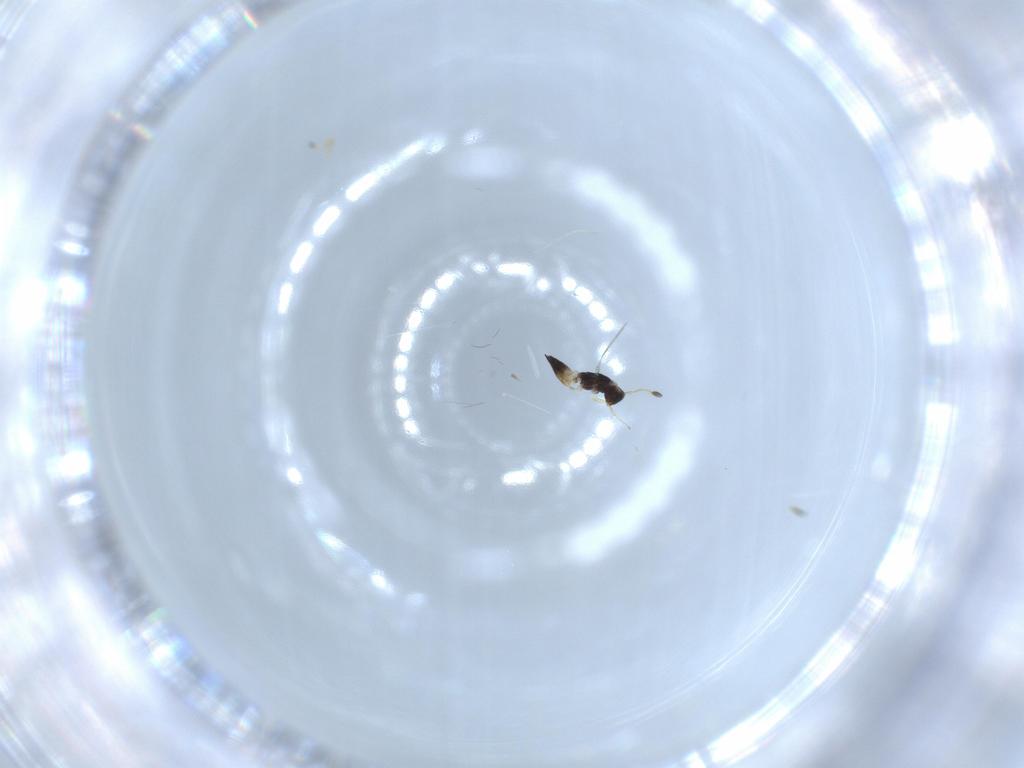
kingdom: Animalia
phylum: Arthropoda
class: Insecta
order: Hymenoptera
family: Mymaridae
